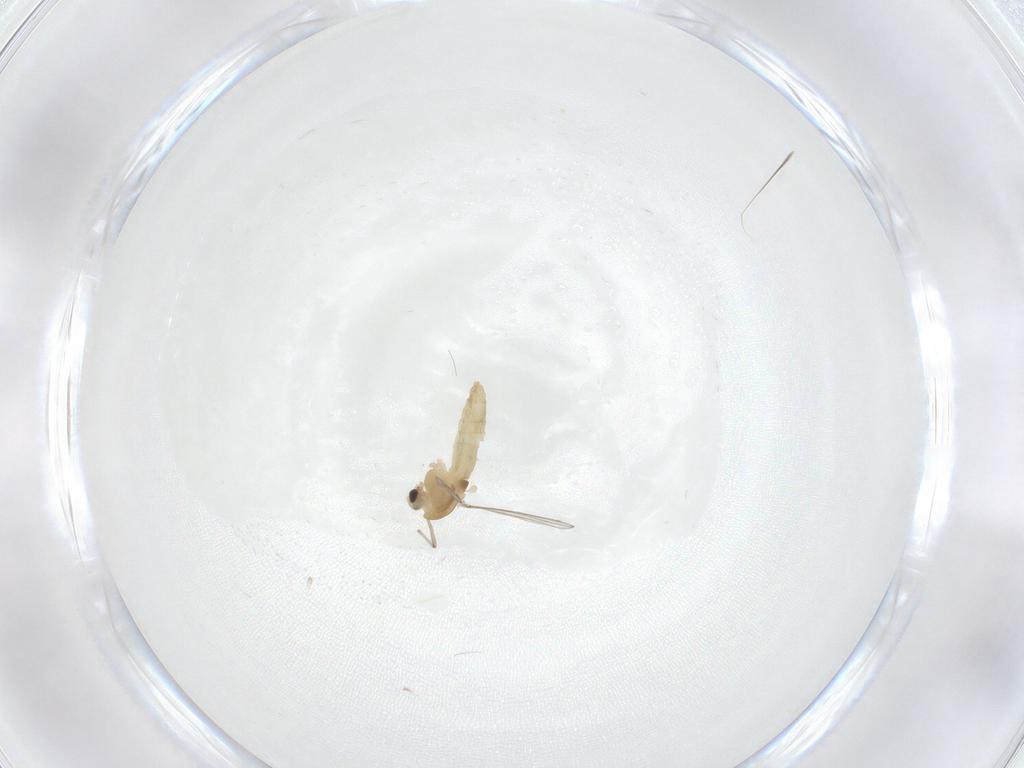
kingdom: Animalia
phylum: Arthropoda
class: Insecta
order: Diptera
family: Chironomidae
